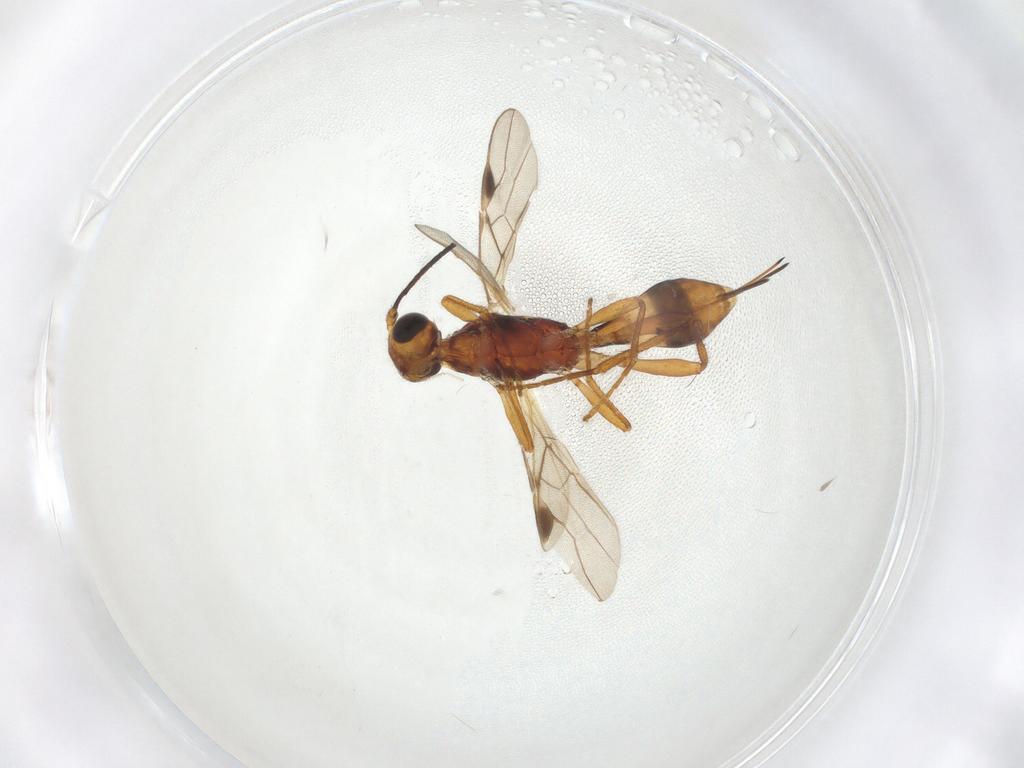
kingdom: Animalia
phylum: Arthropoda
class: Insecta
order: Hymenoptera
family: Braconidae
